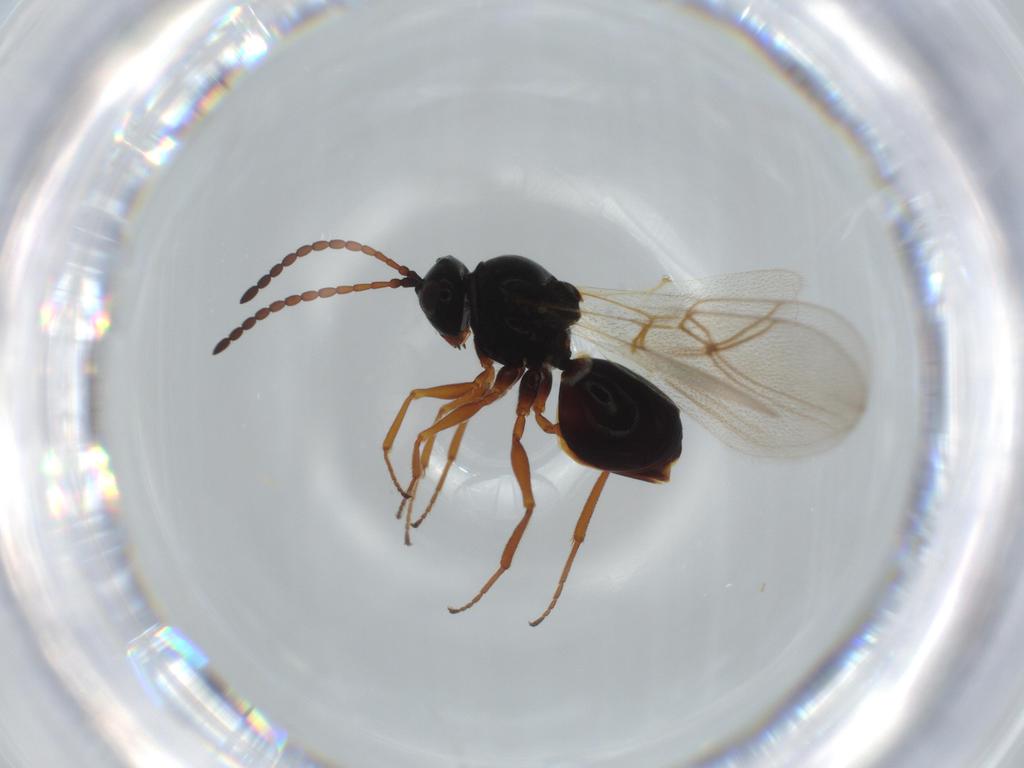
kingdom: Animalia
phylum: Arthropoda
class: Insecta
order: Hymenoptera
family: Figitidae
